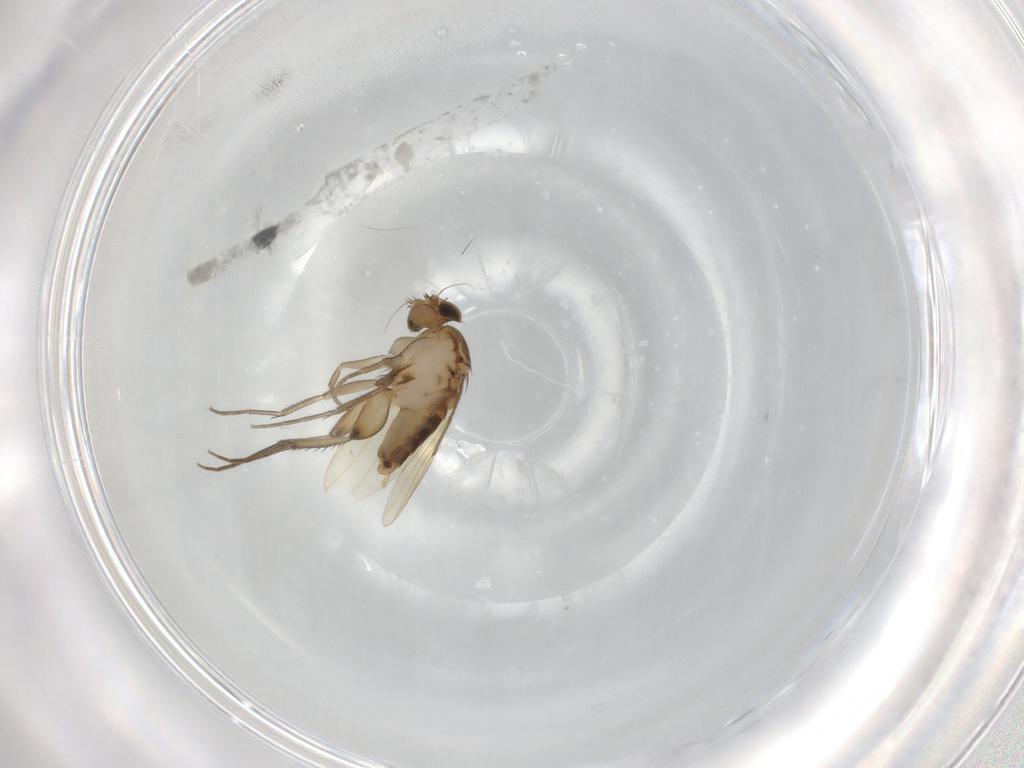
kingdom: Animalia
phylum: Arthropoda
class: Insecta
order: Diptera
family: Phoridae
